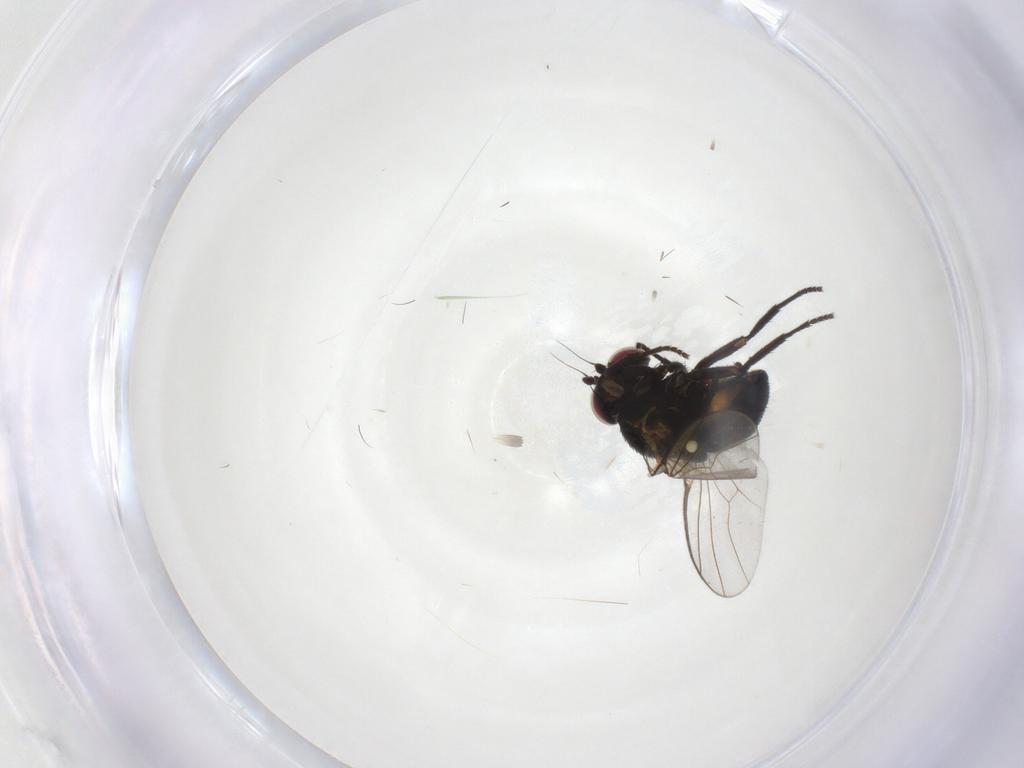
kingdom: Animalia
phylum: Arthropoda
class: Insecta
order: Diptera
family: Agromyzidae
